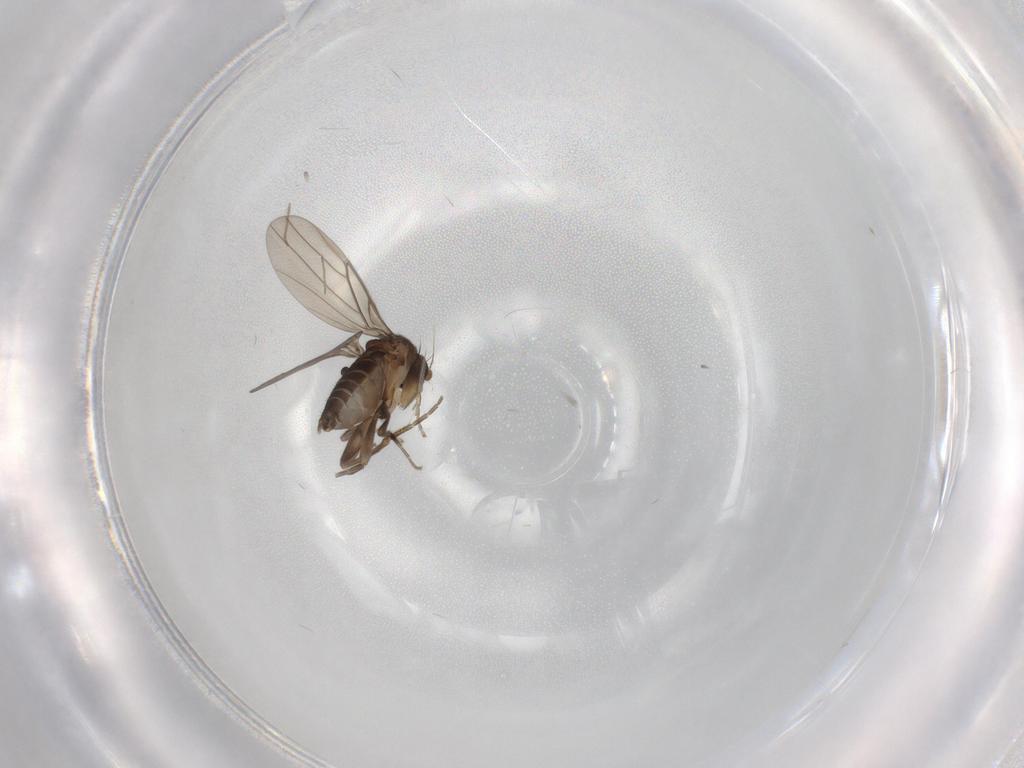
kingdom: Animalia
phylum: Arthropoda
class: Insecta
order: Diptera
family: Chironomidae
